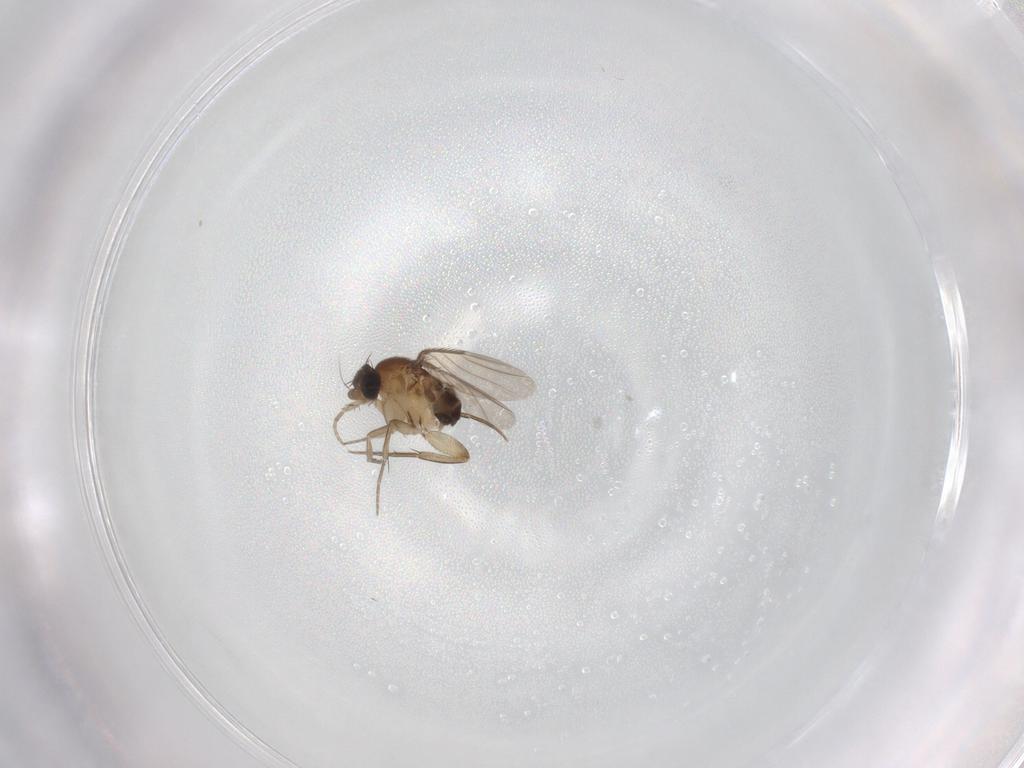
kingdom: Animalia
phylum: Arthropoda
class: Insecta
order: Diptera
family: Phoridae
